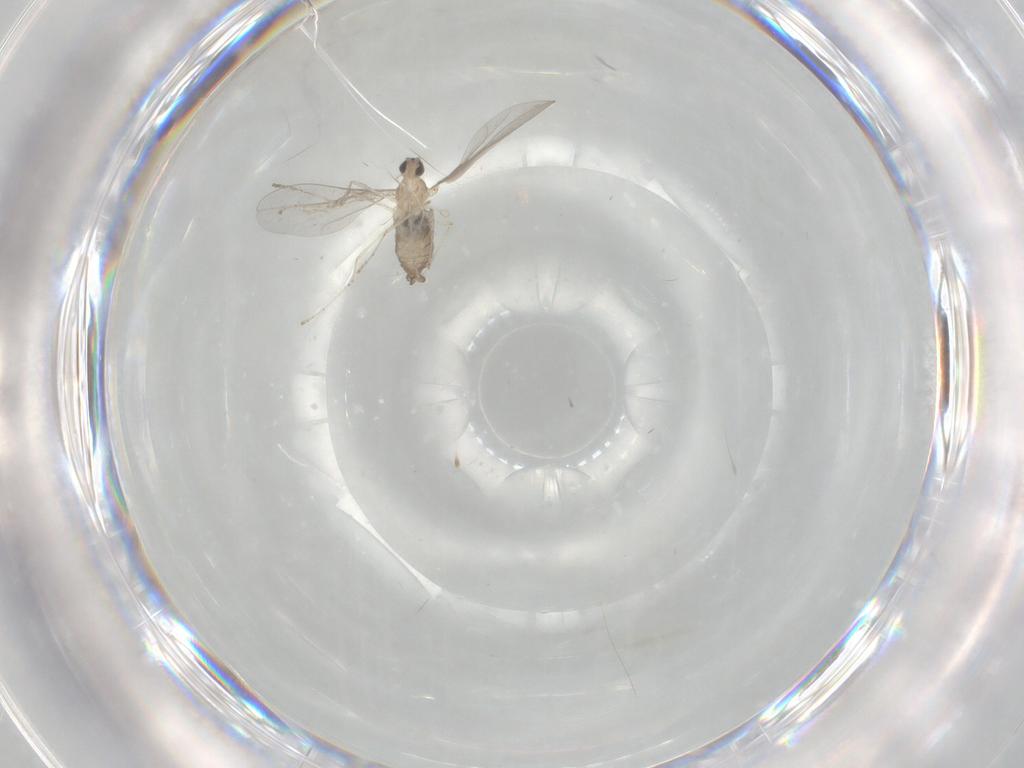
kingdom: Animalia
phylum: Arthropoda
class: Insecta
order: Diptera
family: Cecidomyiidae
